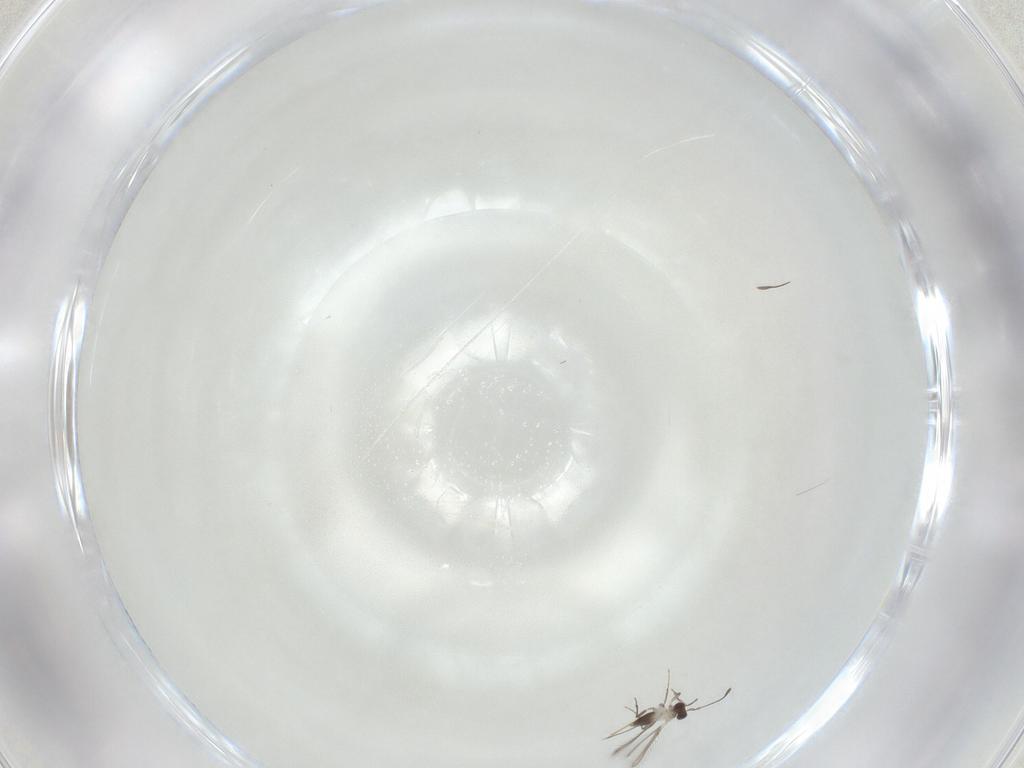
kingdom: Animalia
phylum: Arthropoda
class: Insecta
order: Hymenoptera
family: Mymaridae
